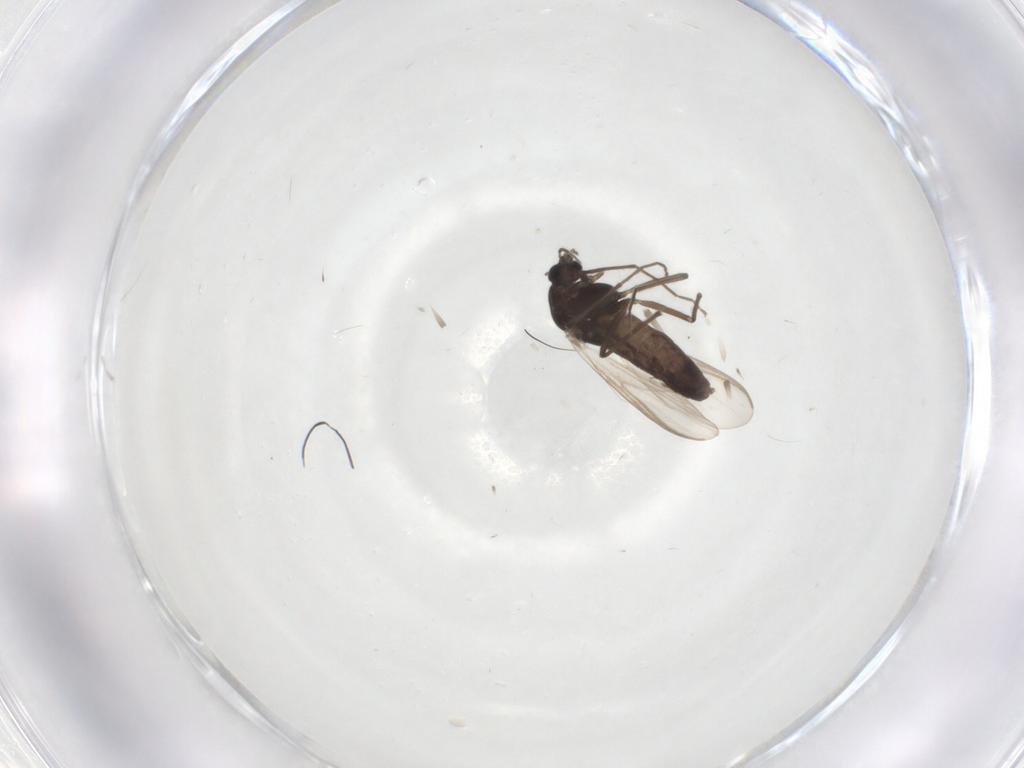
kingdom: Animalia
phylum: Arthropoda
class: Insecta
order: Diptera
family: Chironomidae
